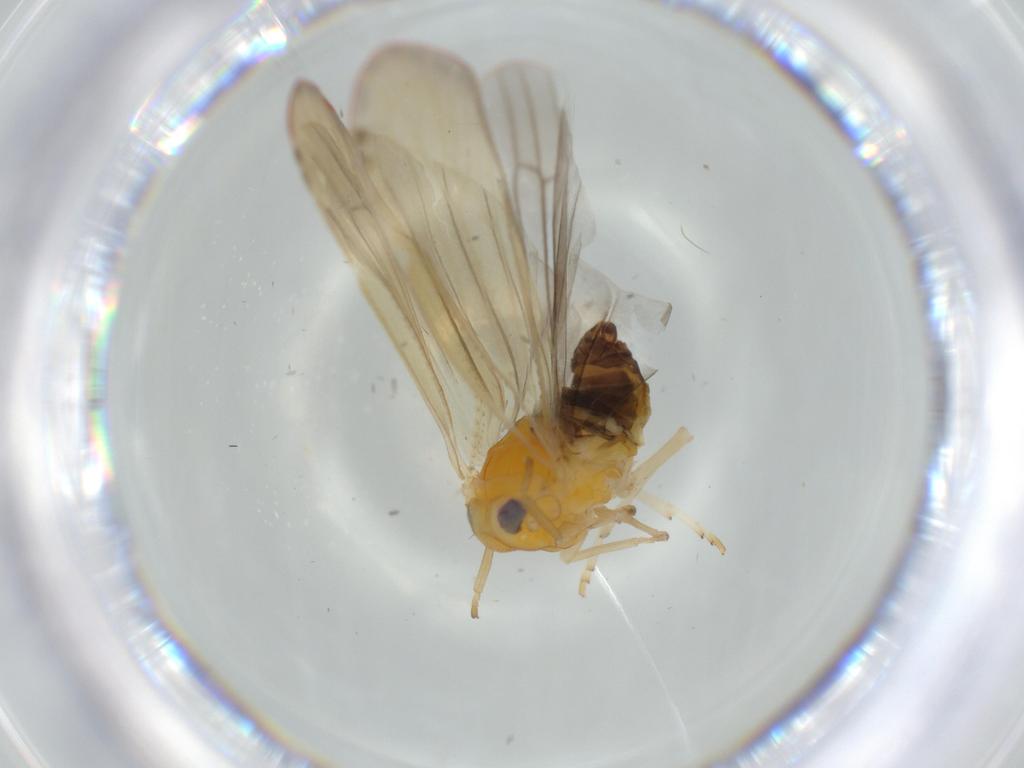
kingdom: Animalia
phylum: Arthropoda
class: Insecta
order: Hemiptera
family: Derbidae
